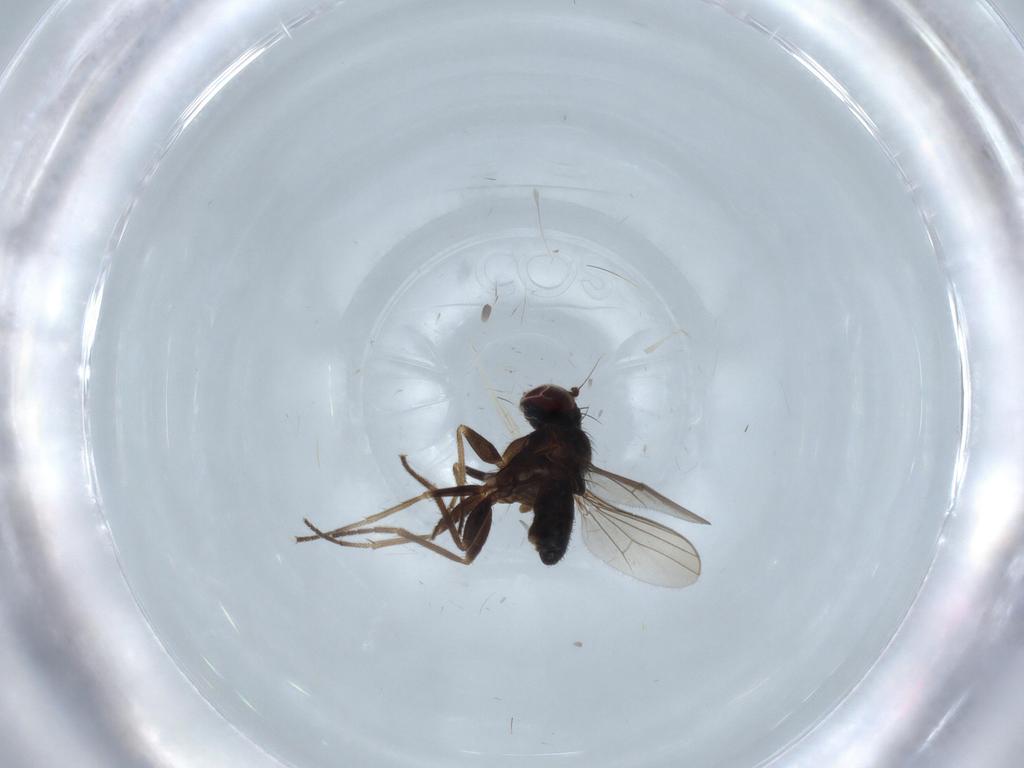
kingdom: Animalia
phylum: Arthropoda
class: Insecta
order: Diptera
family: Dolichopodidae
